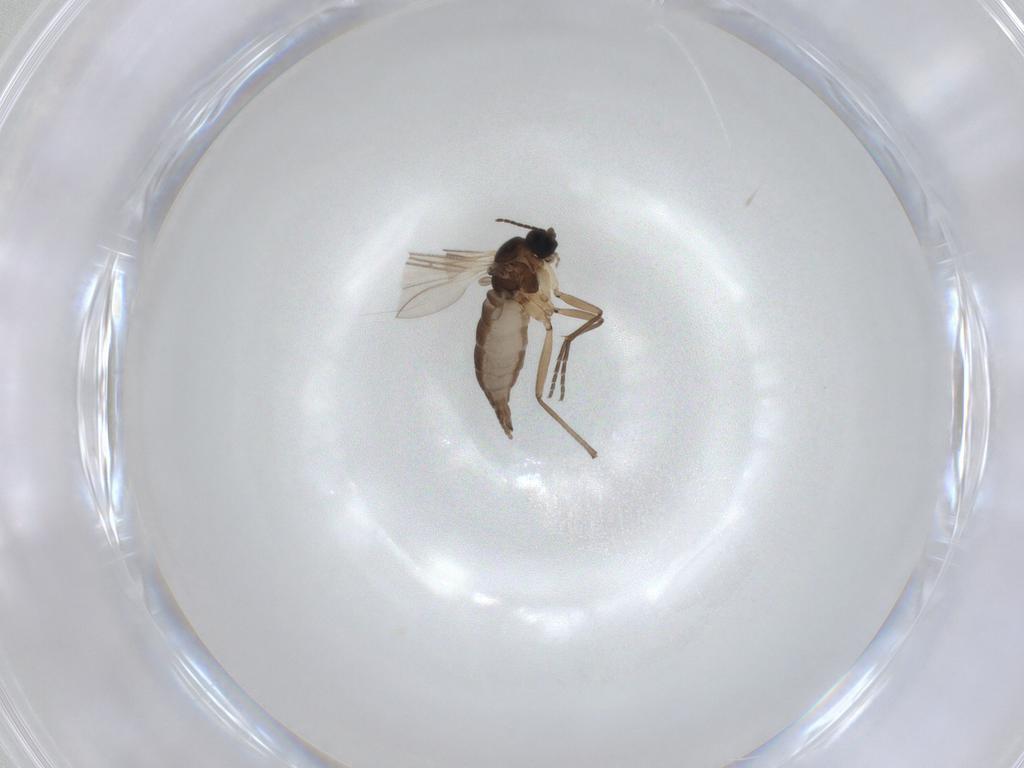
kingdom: Animalia
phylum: Arthropoda
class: Insecta
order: Diptera
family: Sciaridae
